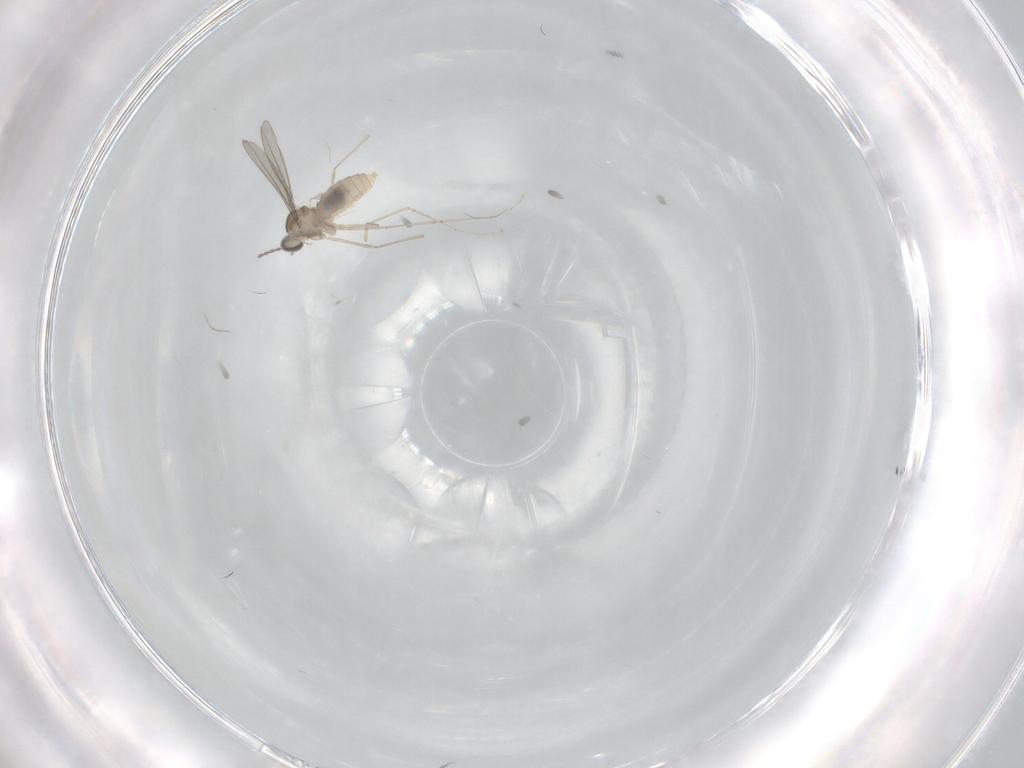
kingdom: Animalia
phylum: Arthropoda
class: Insecta
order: Diptera
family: Cecidomyiidae
